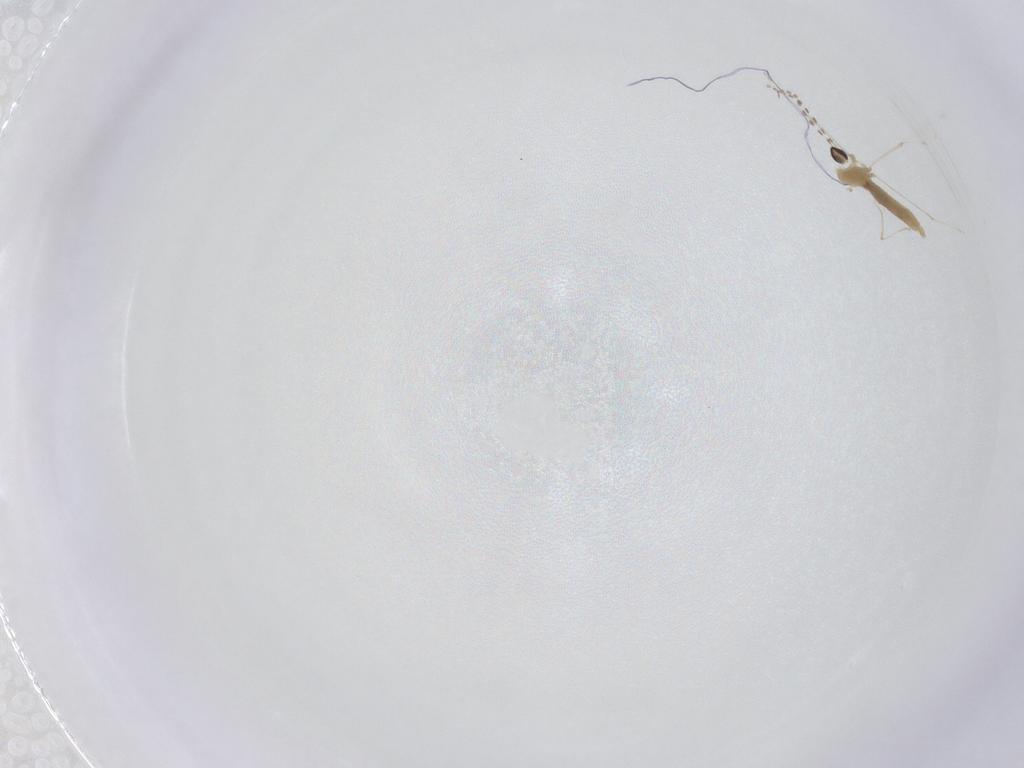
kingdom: Animalia
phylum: Arthropoda
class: Insecta
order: Diptera
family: Cecidomyiidae
